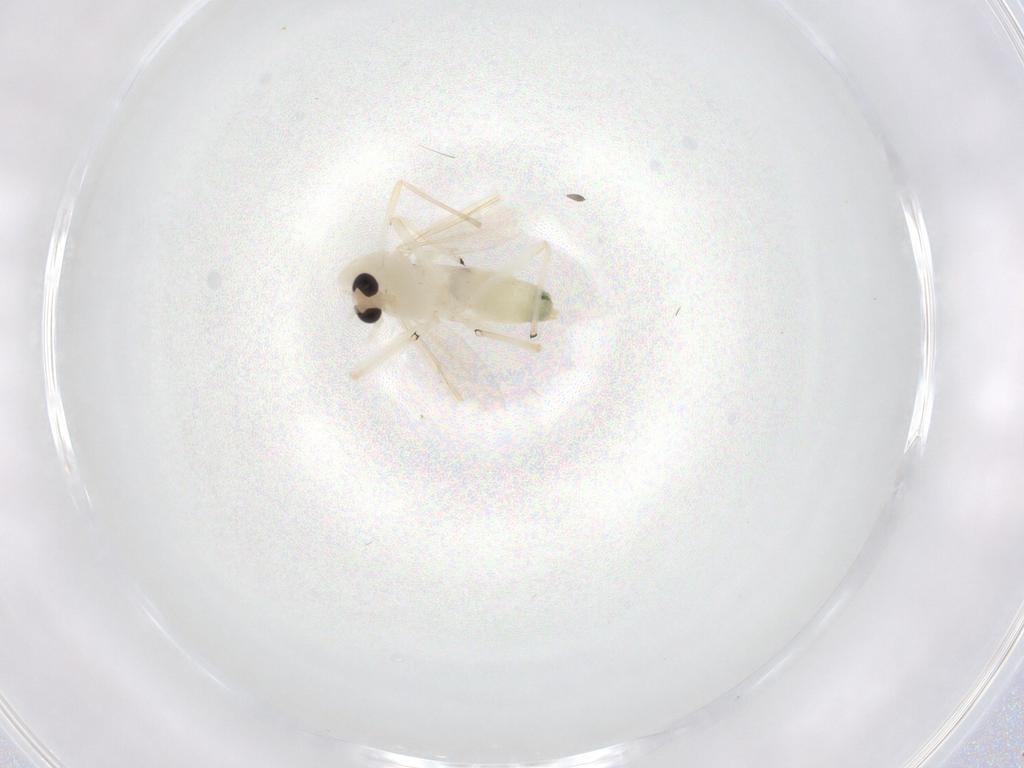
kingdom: Animalia
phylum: Arthropoda
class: Insecta
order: Diptera
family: Chironomidae
